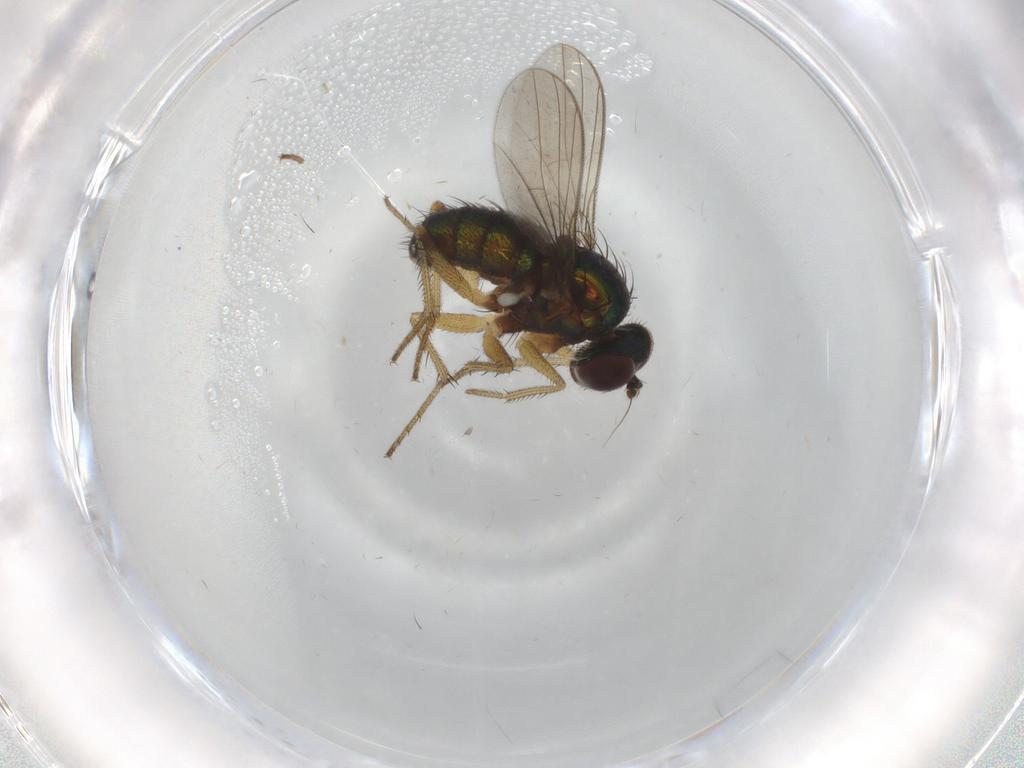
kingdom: Animalia
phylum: Arthropoda
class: Insecta
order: Diptera
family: Dolichopodidae
